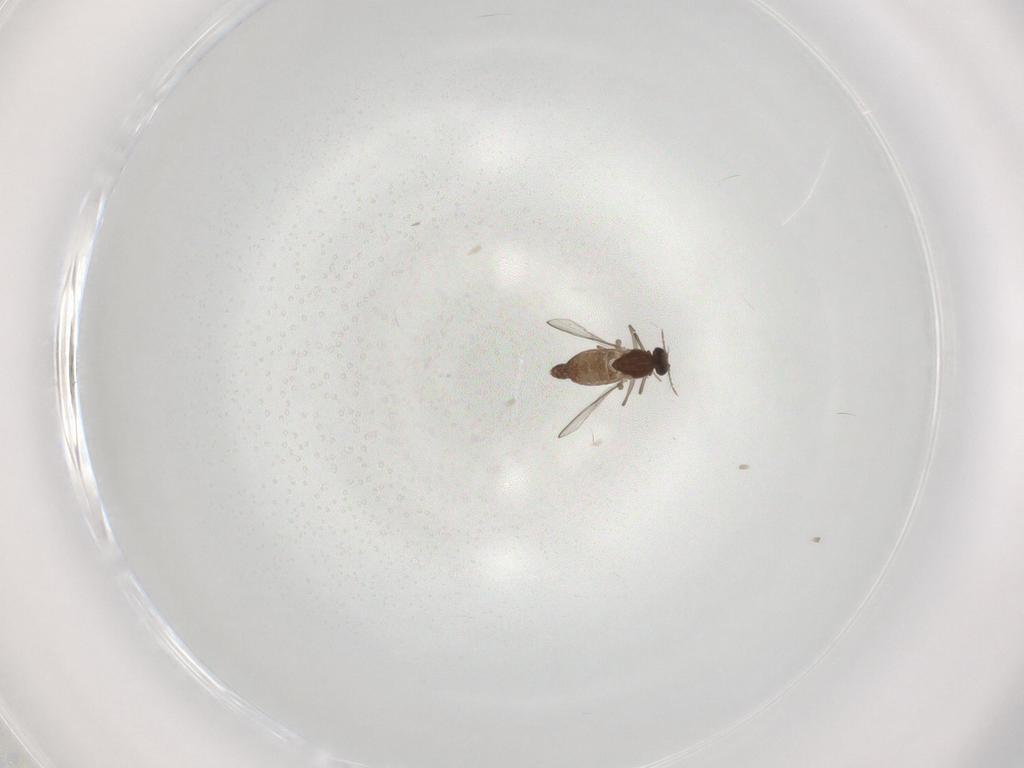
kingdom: Animalia
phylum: Arthropoda
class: Insecta
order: Diptera
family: Chironomidae
